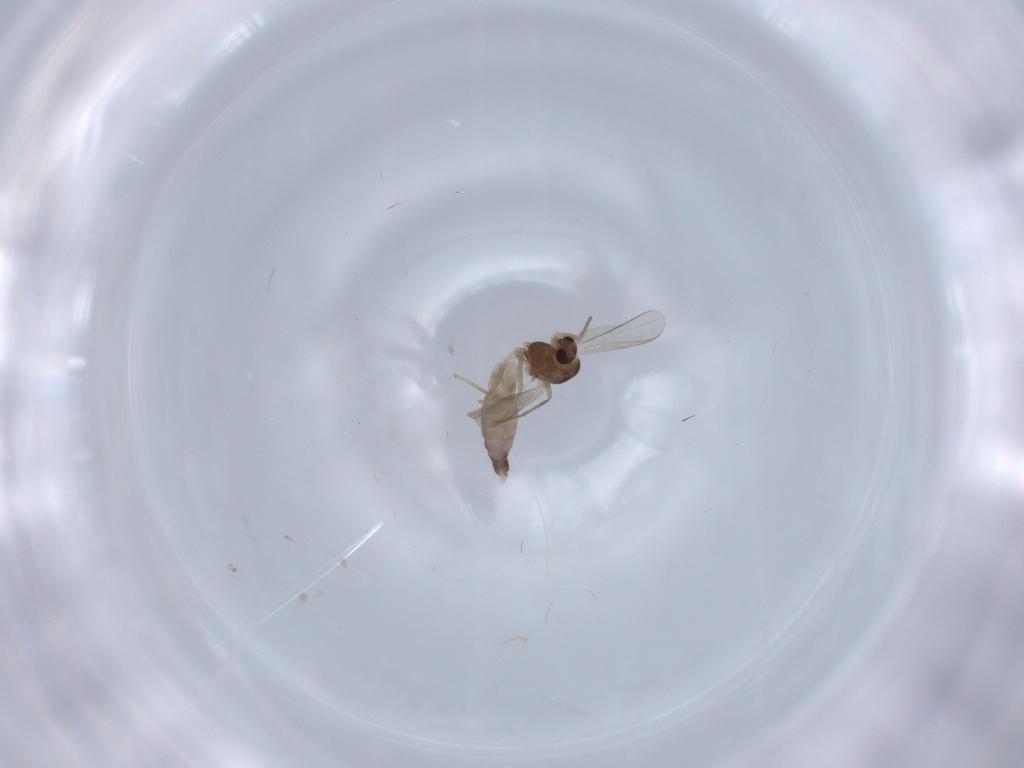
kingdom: Animalia
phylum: Arthropoda
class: Insecta
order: Diptera
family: Chironomidae
